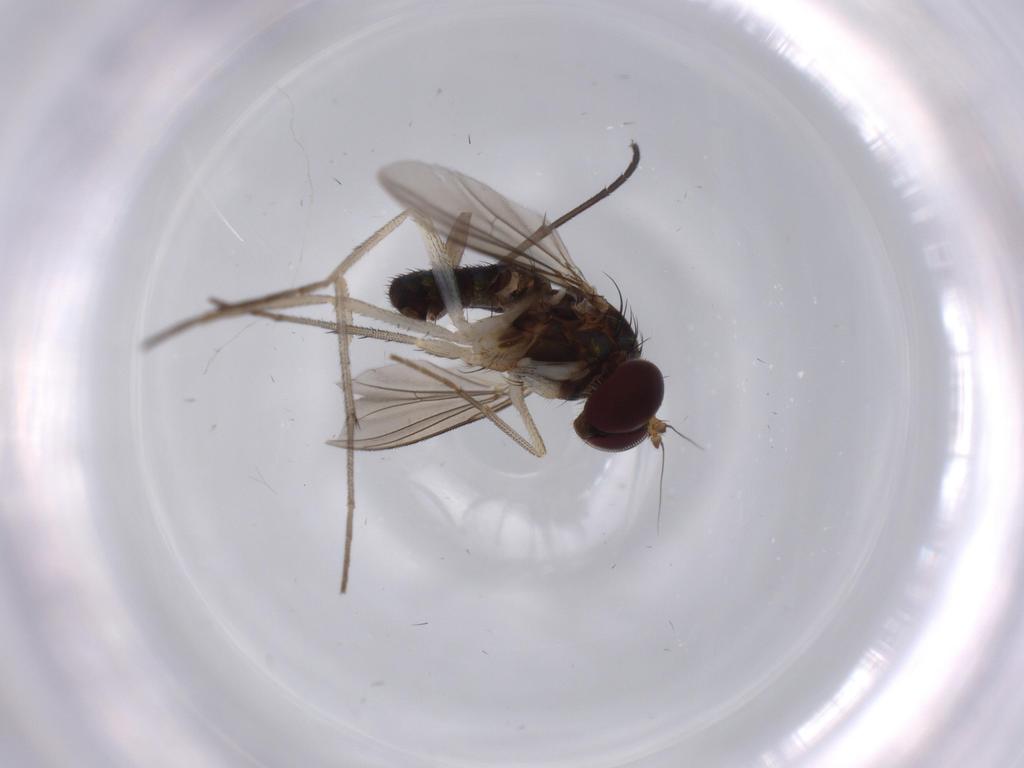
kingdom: Animalia
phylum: Arthropoda
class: Insecta
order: Diptera
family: Dolichopodidae
